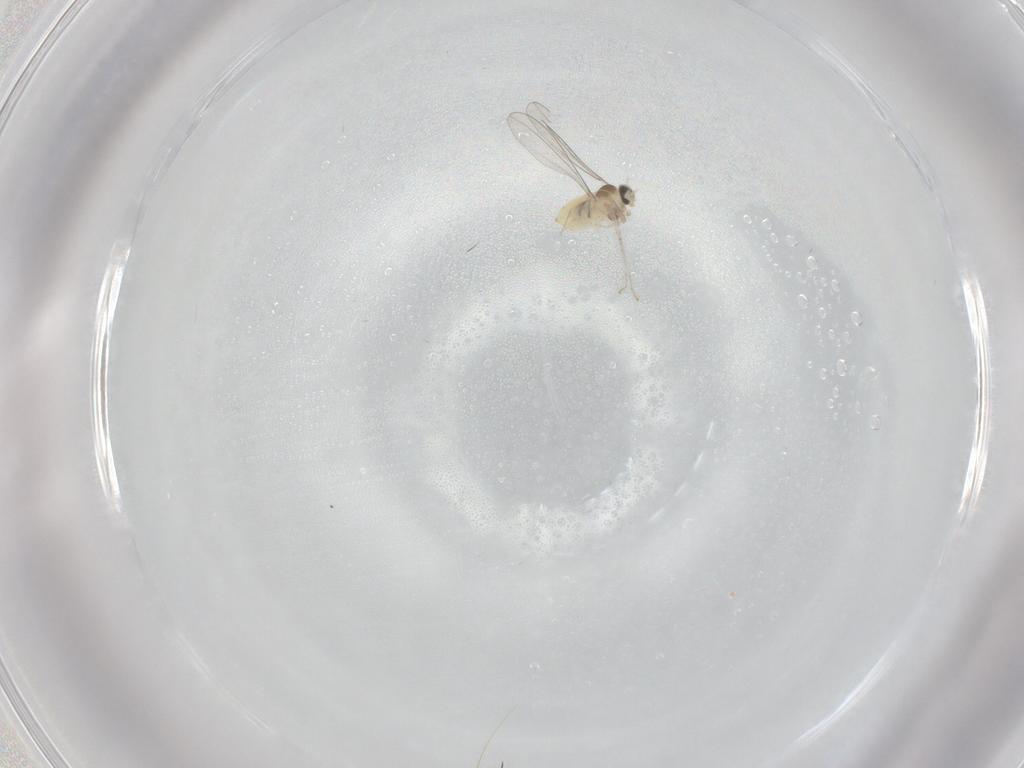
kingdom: Animalia
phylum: Arthropoda
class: Insecta
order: Diptera
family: Cecidomyiidae
